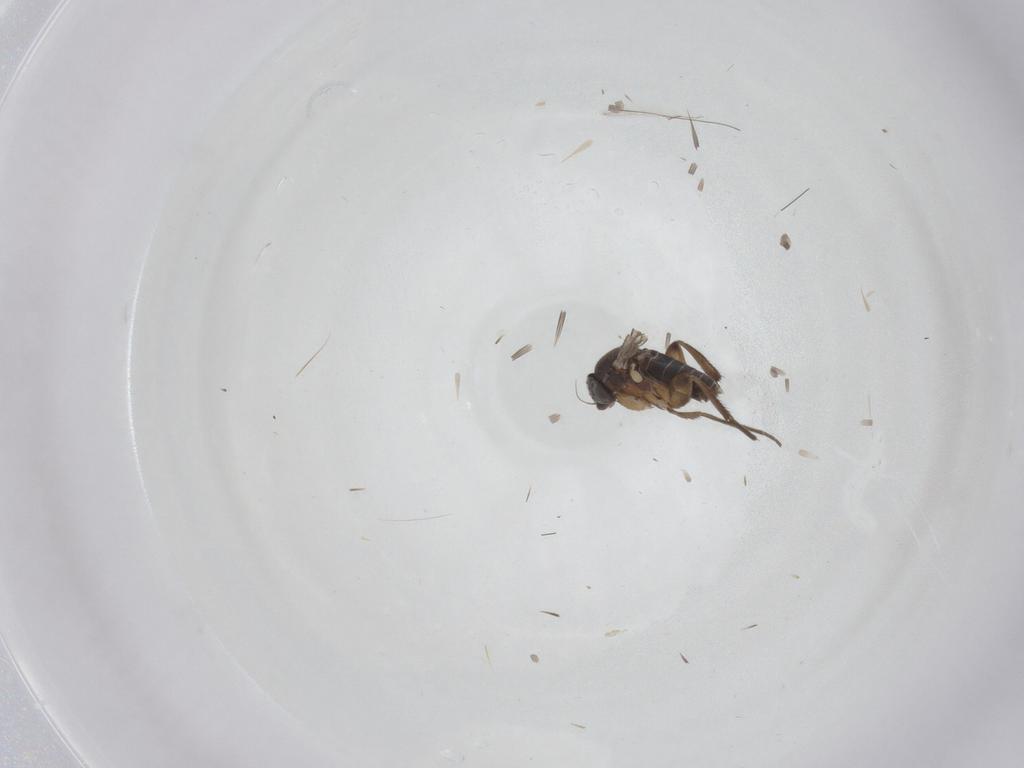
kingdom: Animalia
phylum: Arthropoda
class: Insecta
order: Diptera
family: Phoridae
